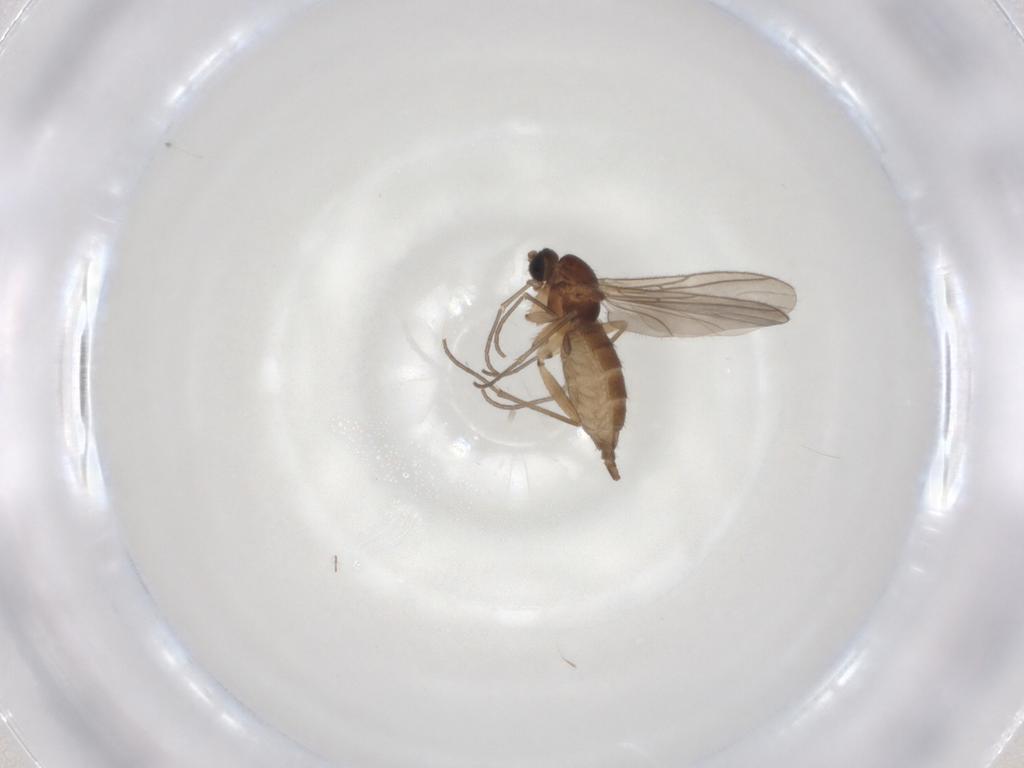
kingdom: Animalia
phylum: Arthropoda
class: Insecta
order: Diptera
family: Sciaridae
